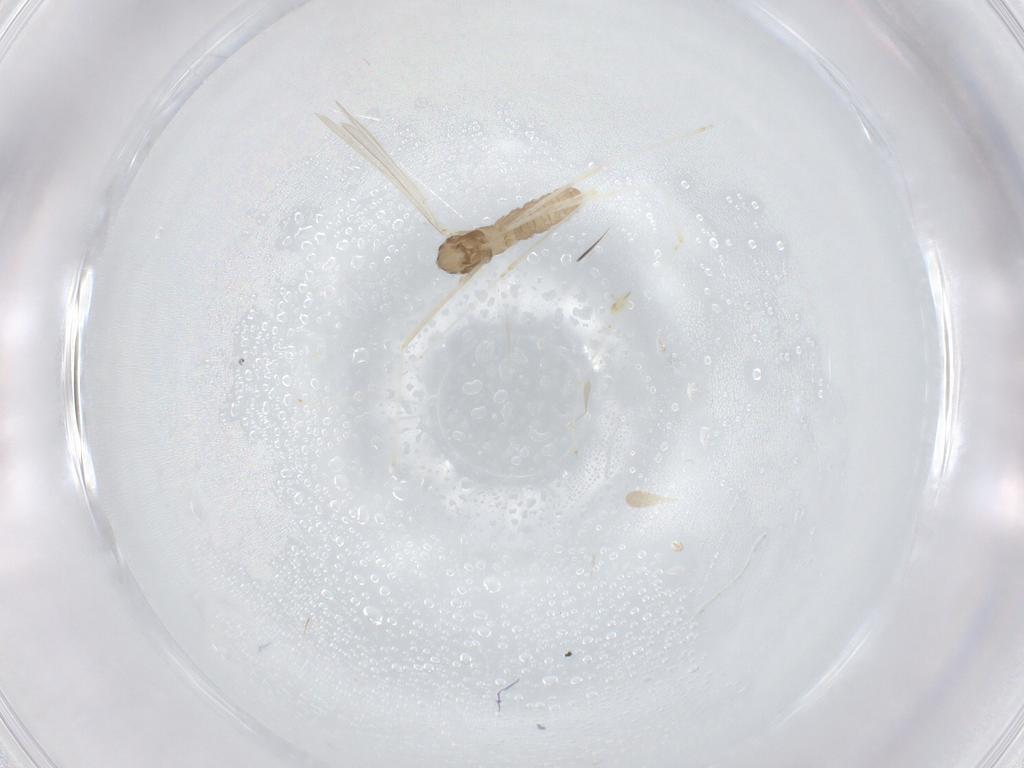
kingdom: Animalia
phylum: Arthropoda
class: Insecta
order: Diptera
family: Cecidomyiidae
